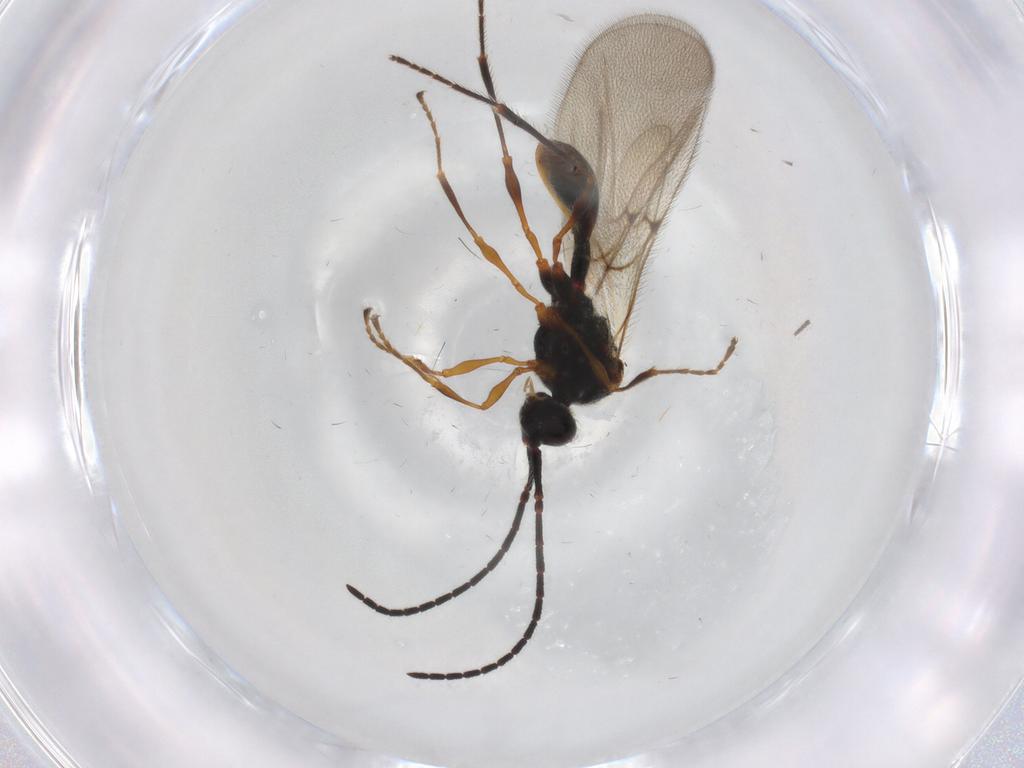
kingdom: Animalia
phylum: Arthropoda
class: Insecta
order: Hymenoptera
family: Diapriidae
